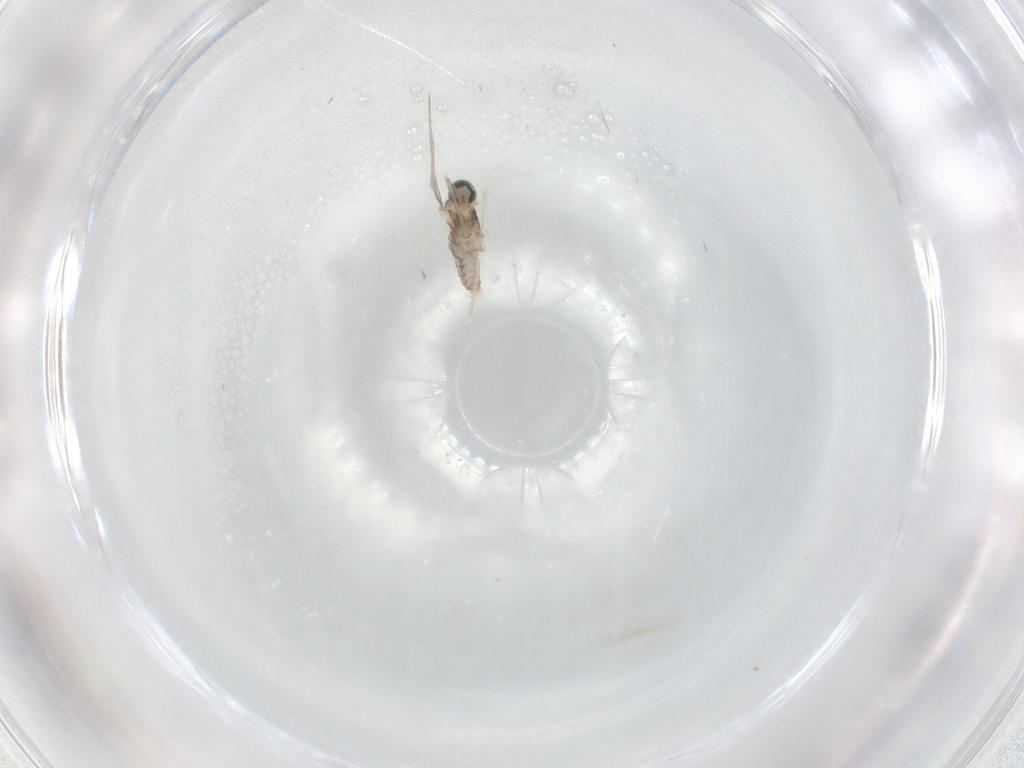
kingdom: Animalia
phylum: Arthropoda
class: Insecta
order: Diptera
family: Cecidomyiidae
